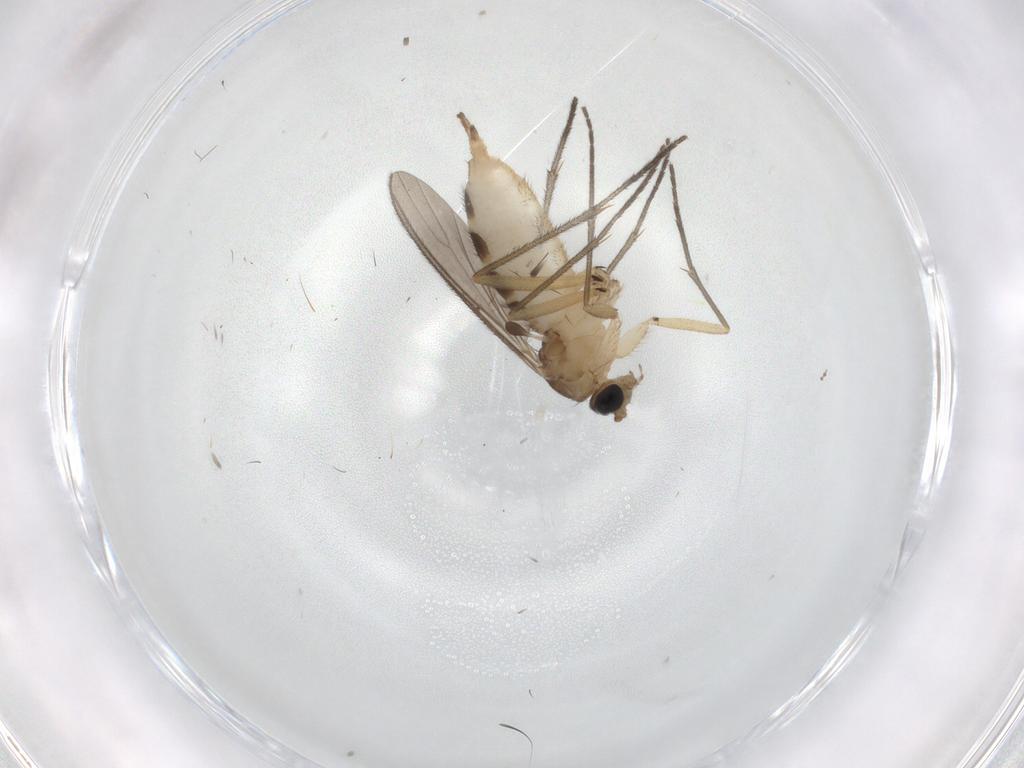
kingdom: Animalia
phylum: Arthropoda
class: Insecta
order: Diptera
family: Sciaridae
